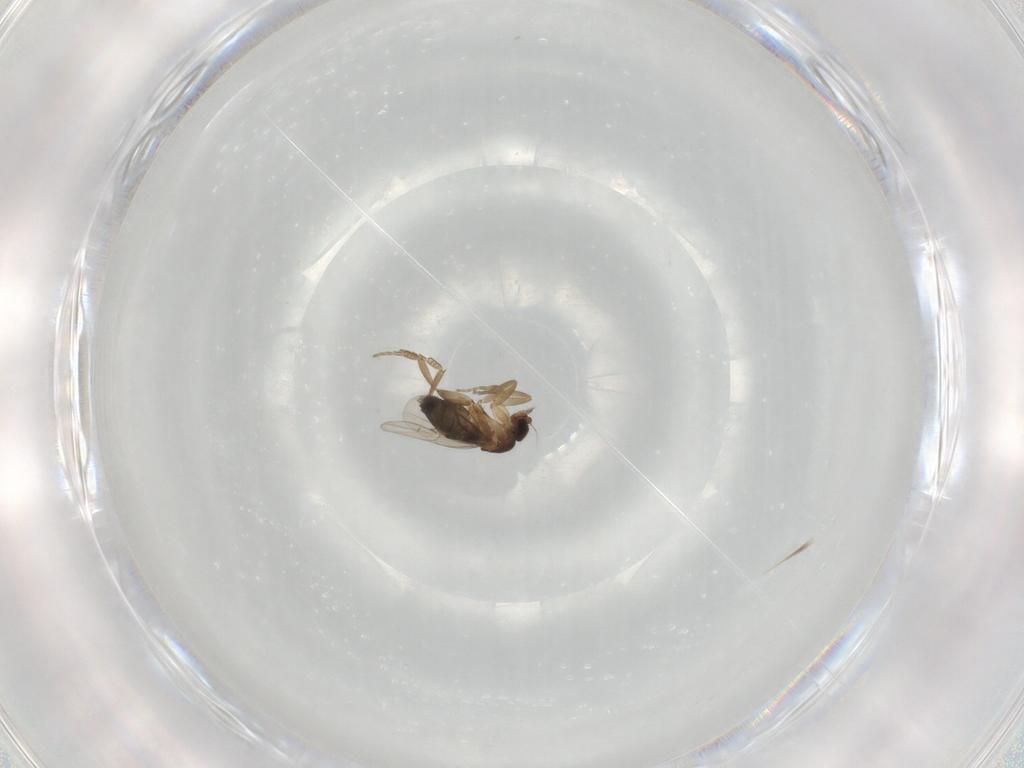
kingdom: Animalia
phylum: Arthropoda
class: Insecta
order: Diptera
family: Phoridae
